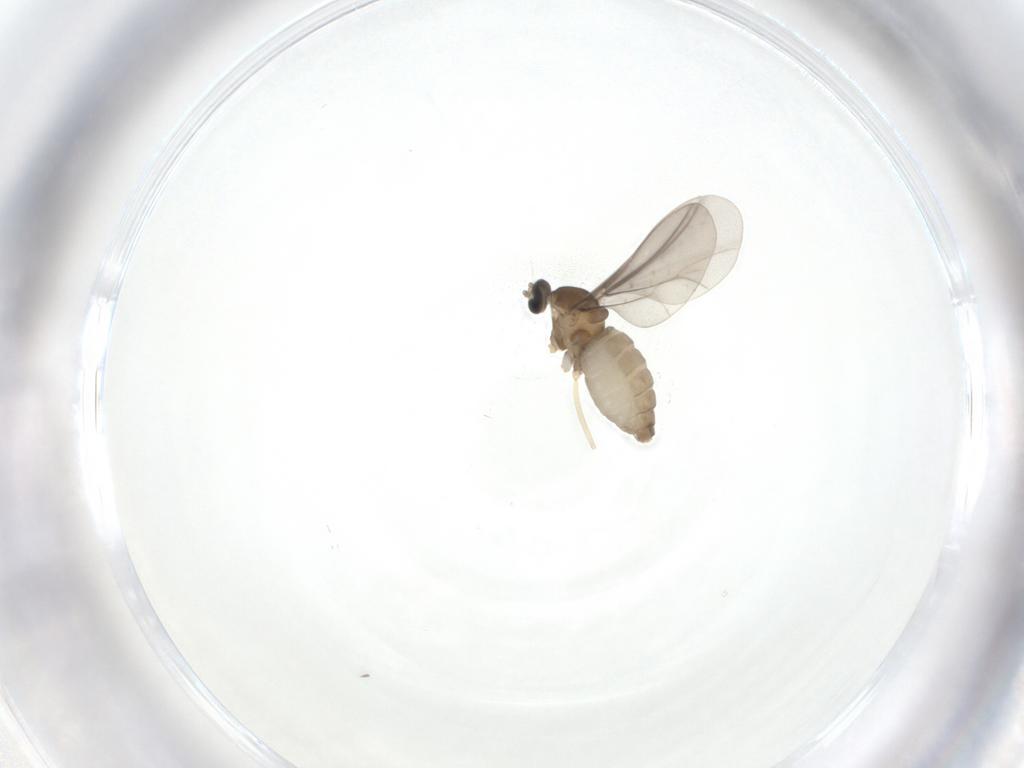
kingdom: Animalia
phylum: Arthropoda
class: Insecta
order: Diptera
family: Cecidomyiidae
